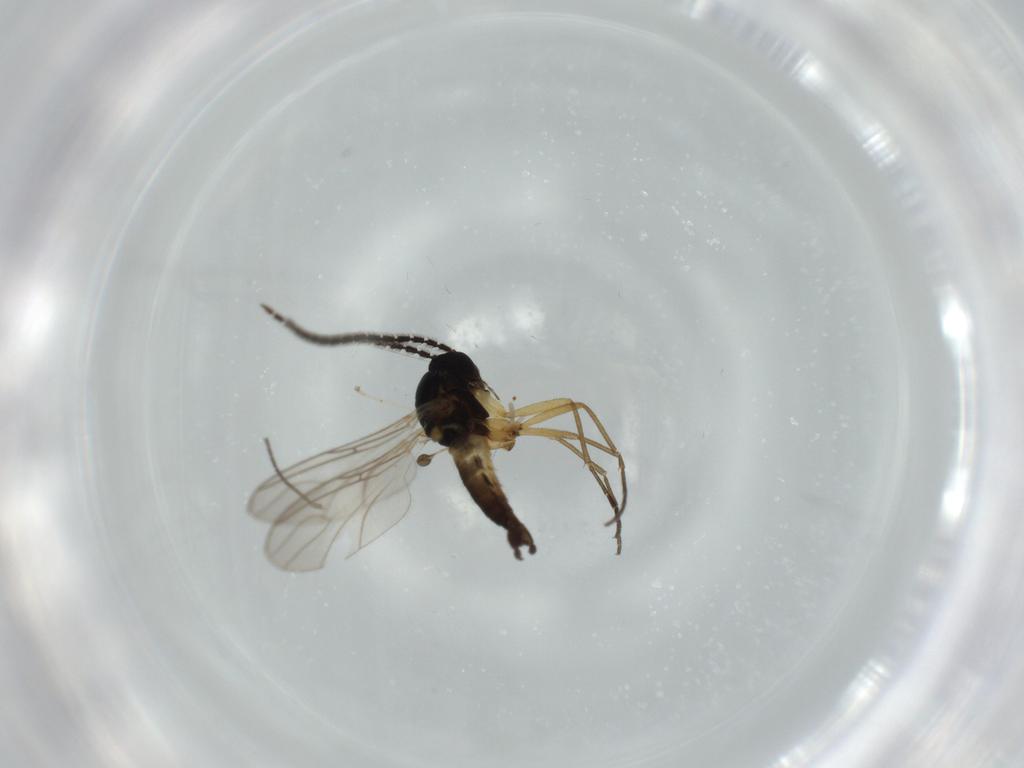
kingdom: Animalia
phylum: Arthropoda
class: Insecta
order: Diptera
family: Sciaridae
